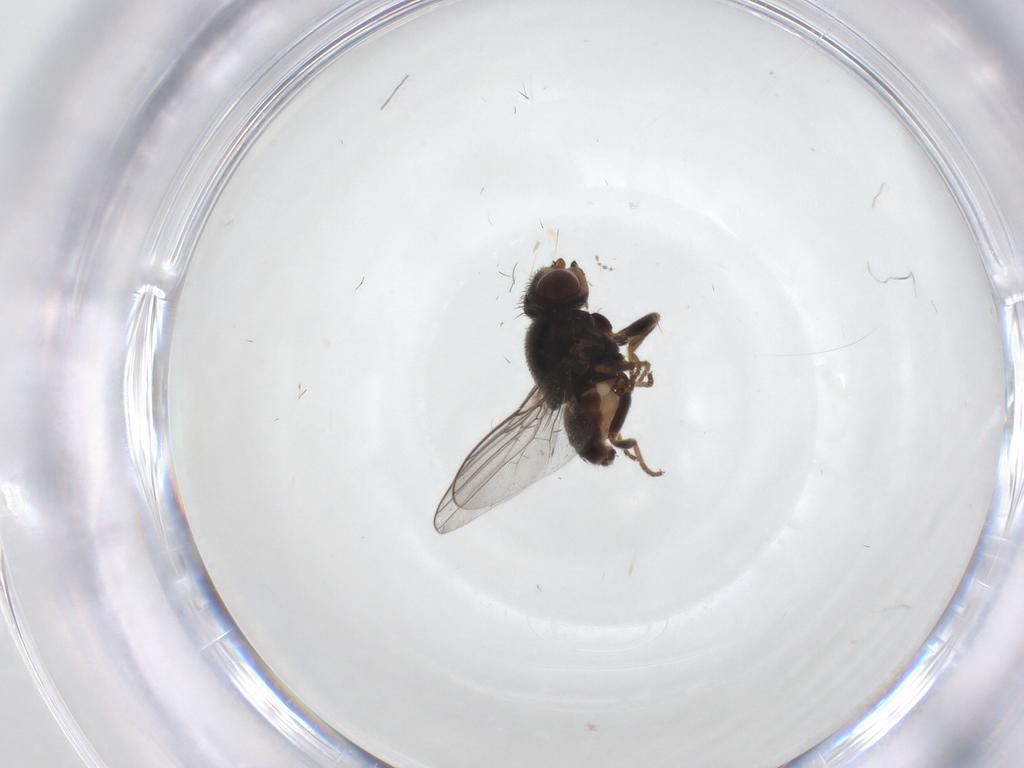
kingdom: Animalia
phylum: Arthropoda
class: Insecta
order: Diptera
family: Chloropidae
